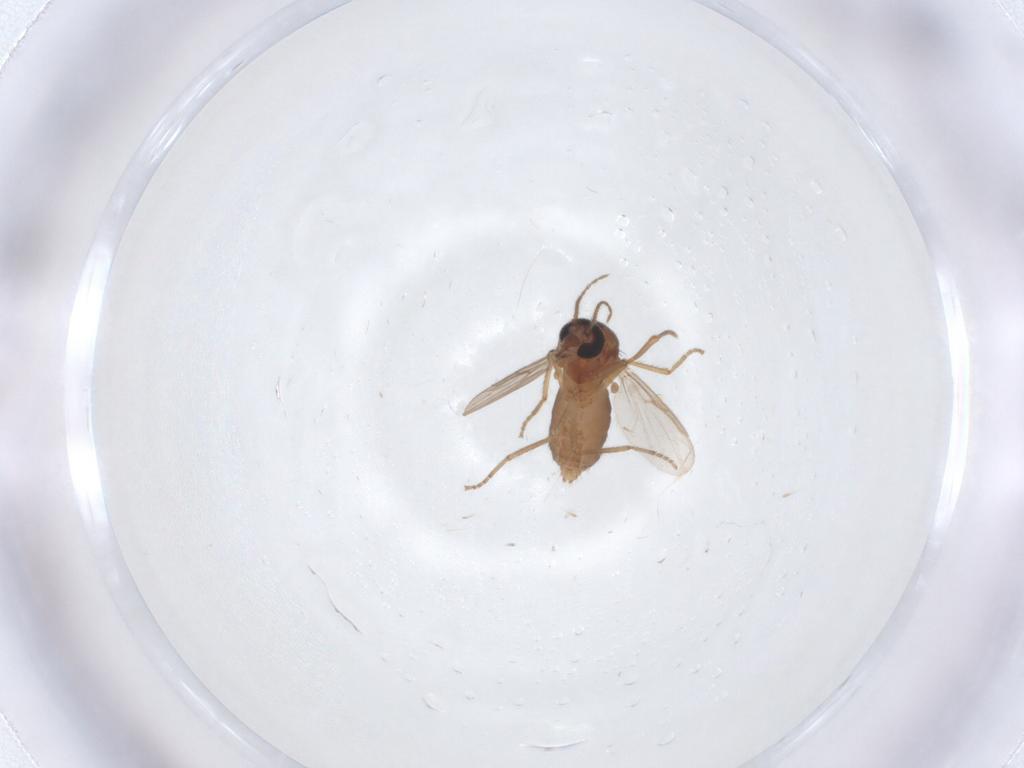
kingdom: Animalia
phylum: Arthropoda
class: Insecta
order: Diptera
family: Ceratopogonidae
